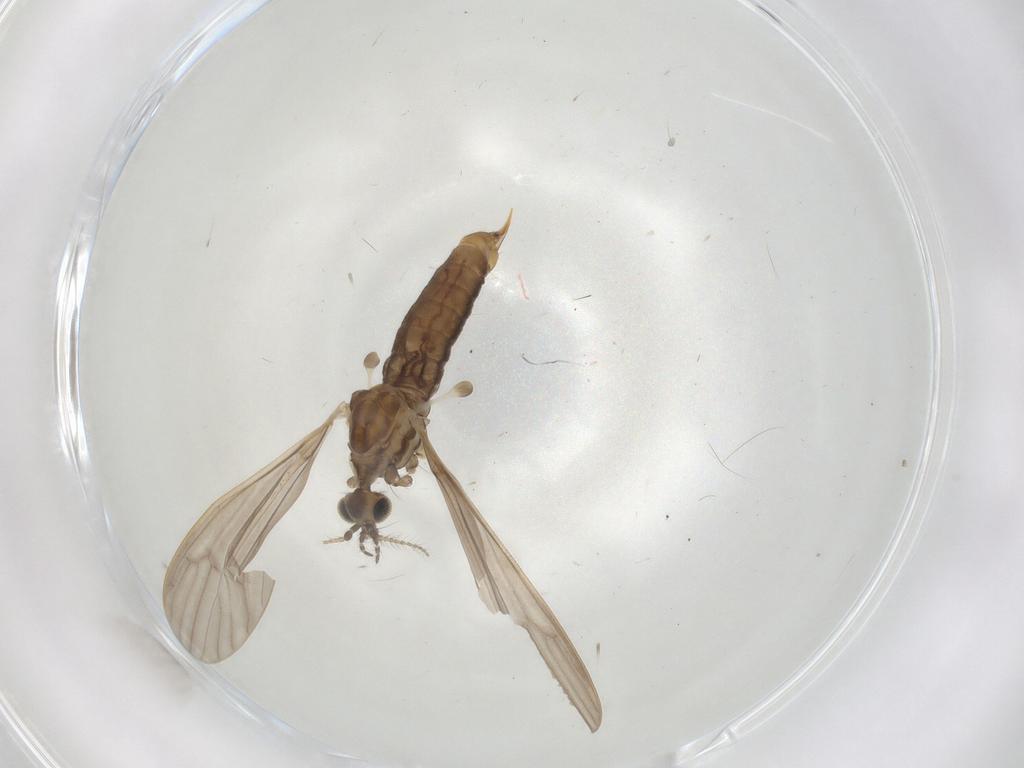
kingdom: Animalia
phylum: Arthropoda
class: Insecta
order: Diptera
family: Limoniidae
